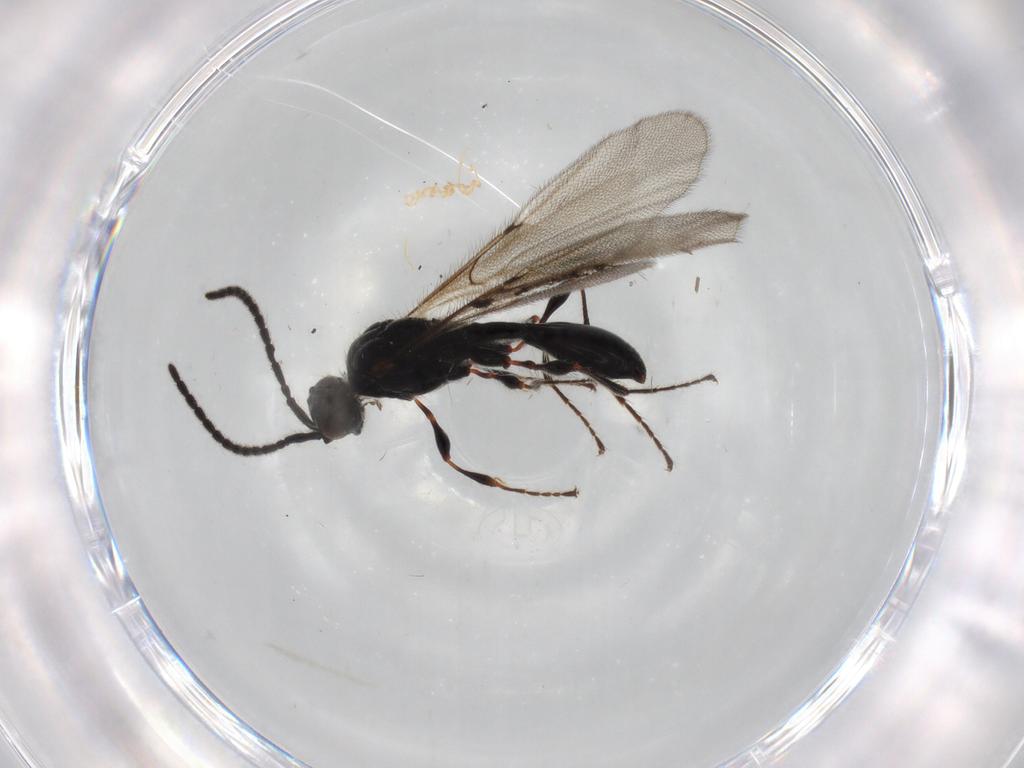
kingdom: Animalia
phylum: Arthropoda
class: Insecta
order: Hymenoptera
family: Diapriidae
